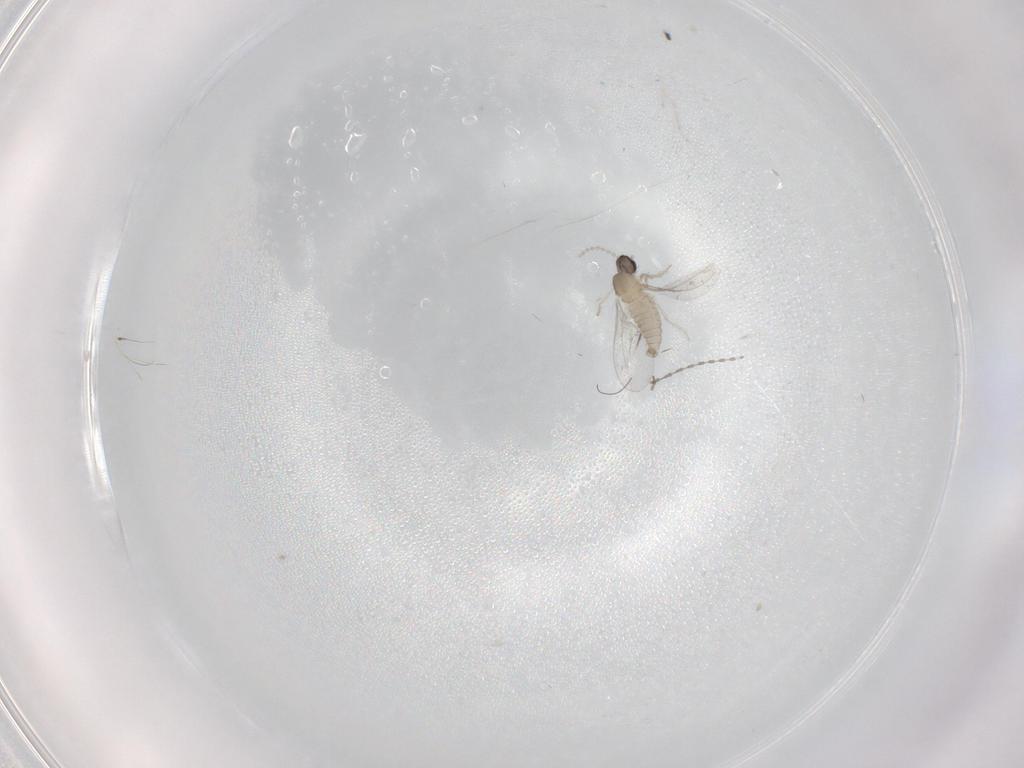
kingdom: Animalia
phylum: Arthropoda
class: Insecta
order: Diptera
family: Cecidomyiidae
